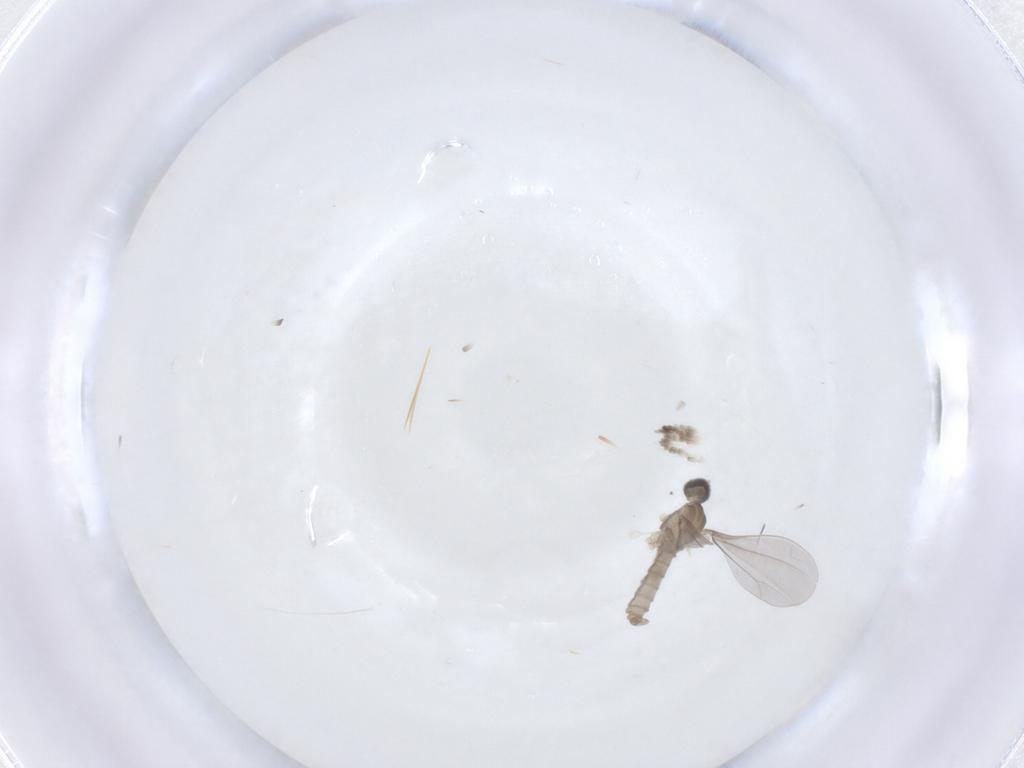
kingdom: Animalia
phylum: Arthropoda
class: Insecta
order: Diptera
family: Cecidomyiidae
